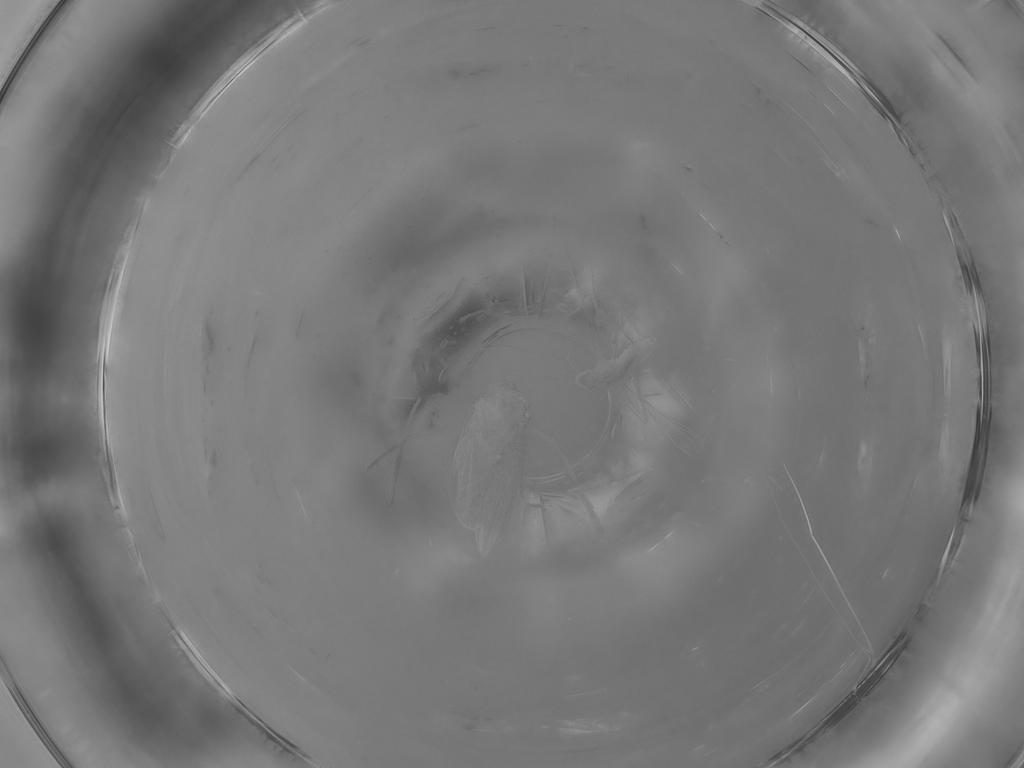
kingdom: Animalia
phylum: Arthropoda
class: Insecta
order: Diptera
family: Cecidomyiidae
